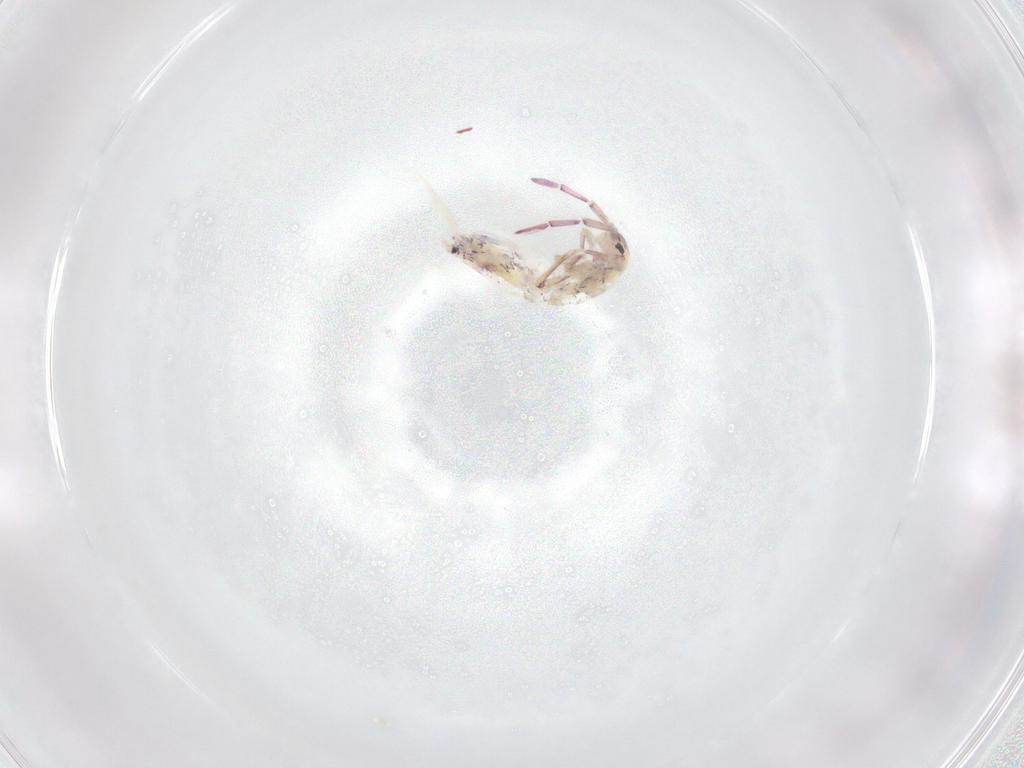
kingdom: Animalia
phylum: Arthropoda
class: Collembola
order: Entomobryomorpha
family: Entomobryidae
